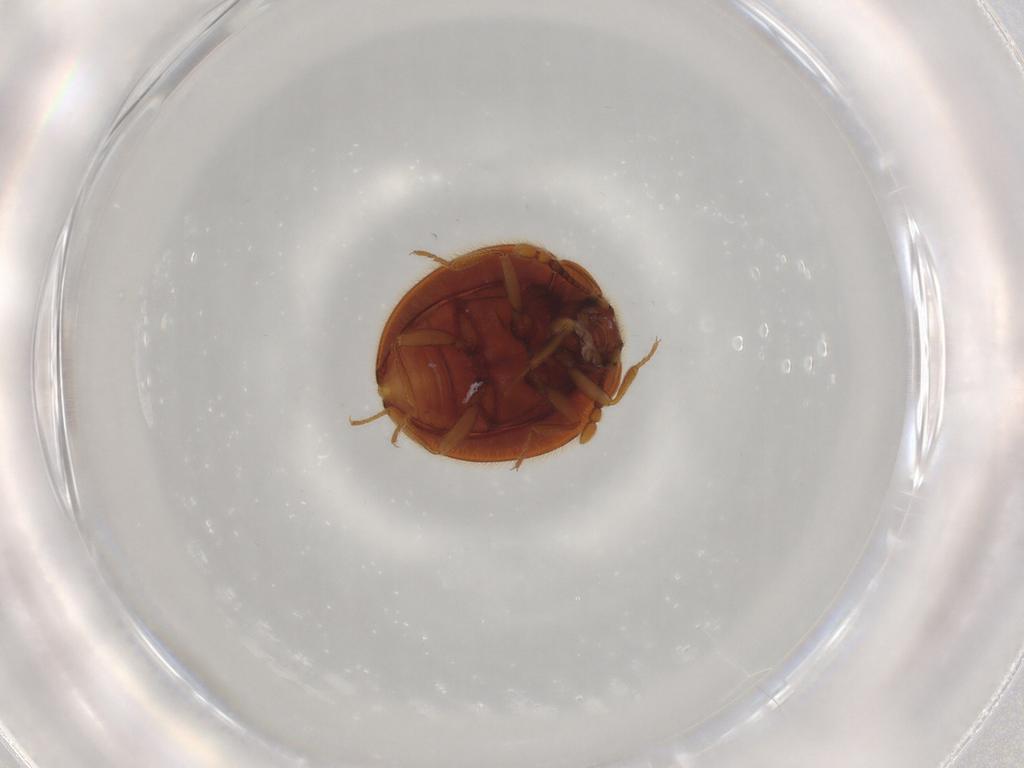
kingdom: Animalia
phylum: Arthropoda
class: Insecta
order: Coleoptera
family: Anamorphidae
